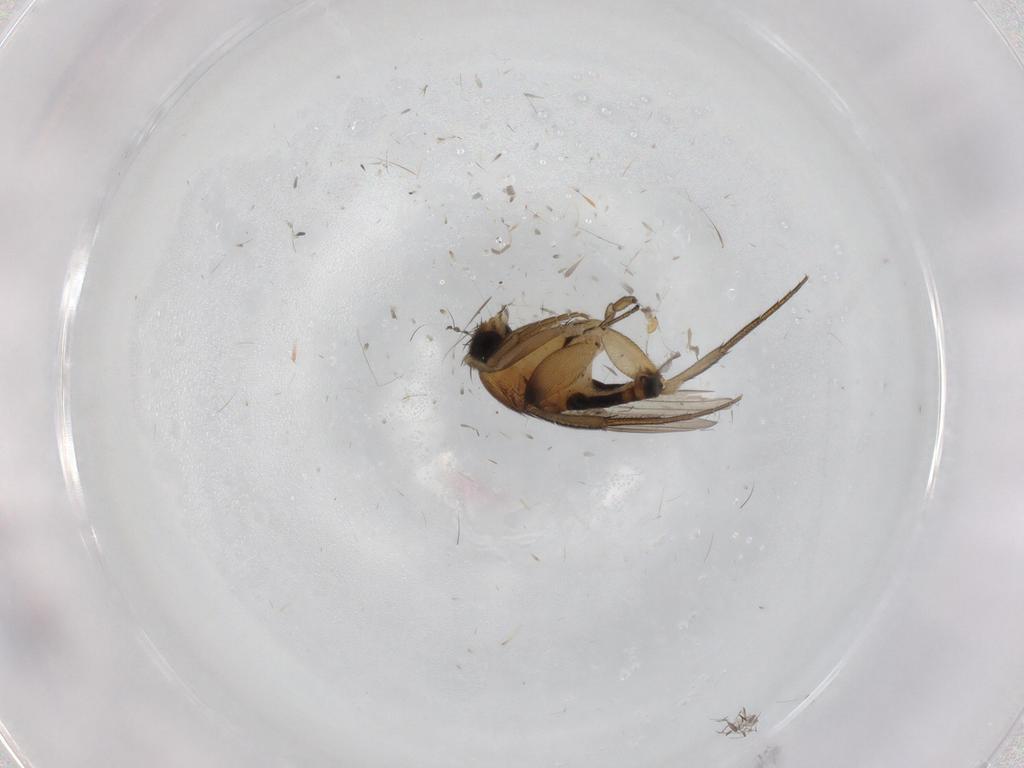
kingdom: Animalia
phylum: Arthropoda
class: Insecta
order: Diptera
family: Phoridae
